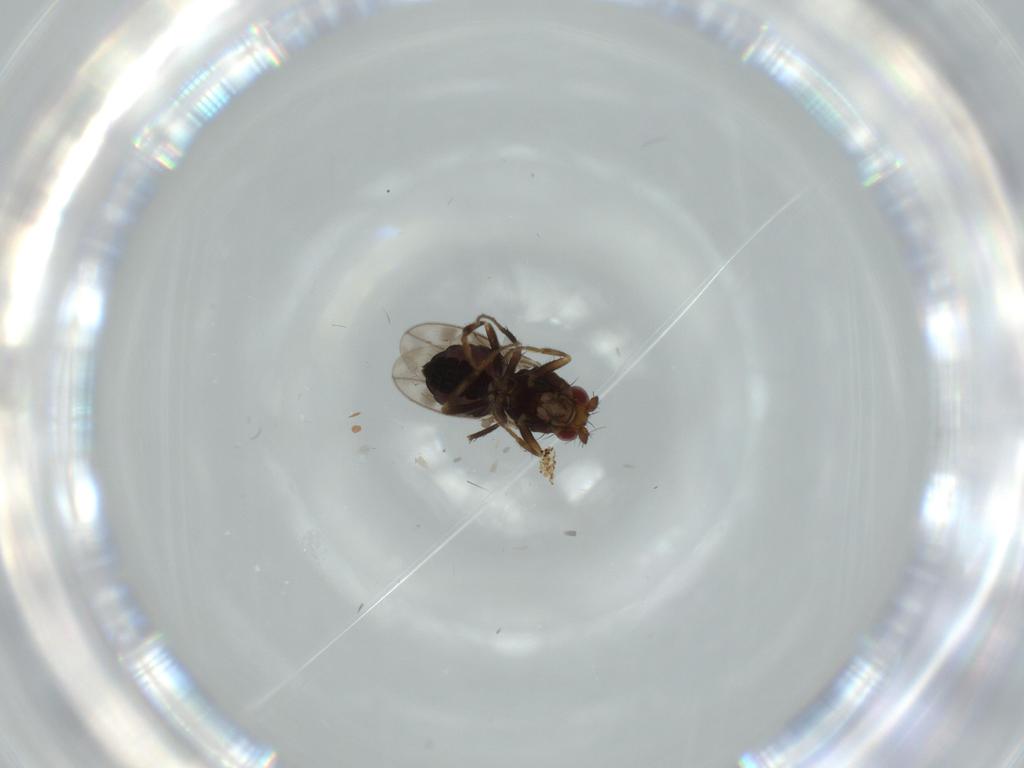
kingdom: Animalia
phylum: Arthropoda
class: Insecta
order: Diptera
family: Sphaeroceridae
